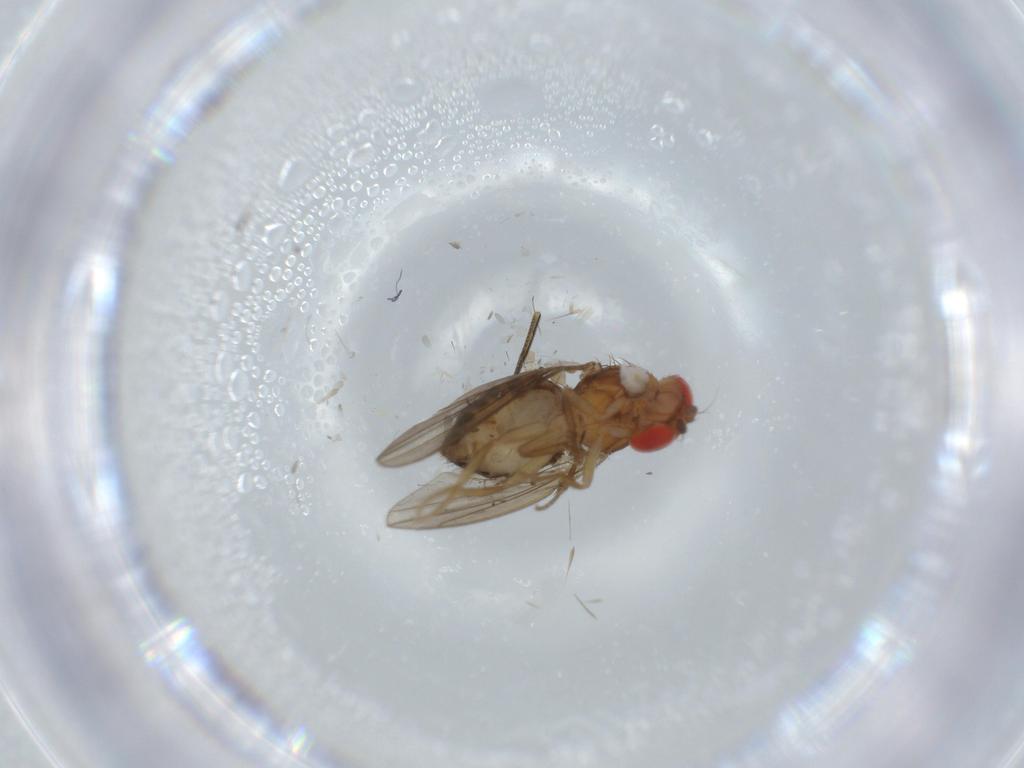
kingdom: Animalia
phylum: Arthropoda
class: Insecta
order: Diptera
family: Drosophilidae
